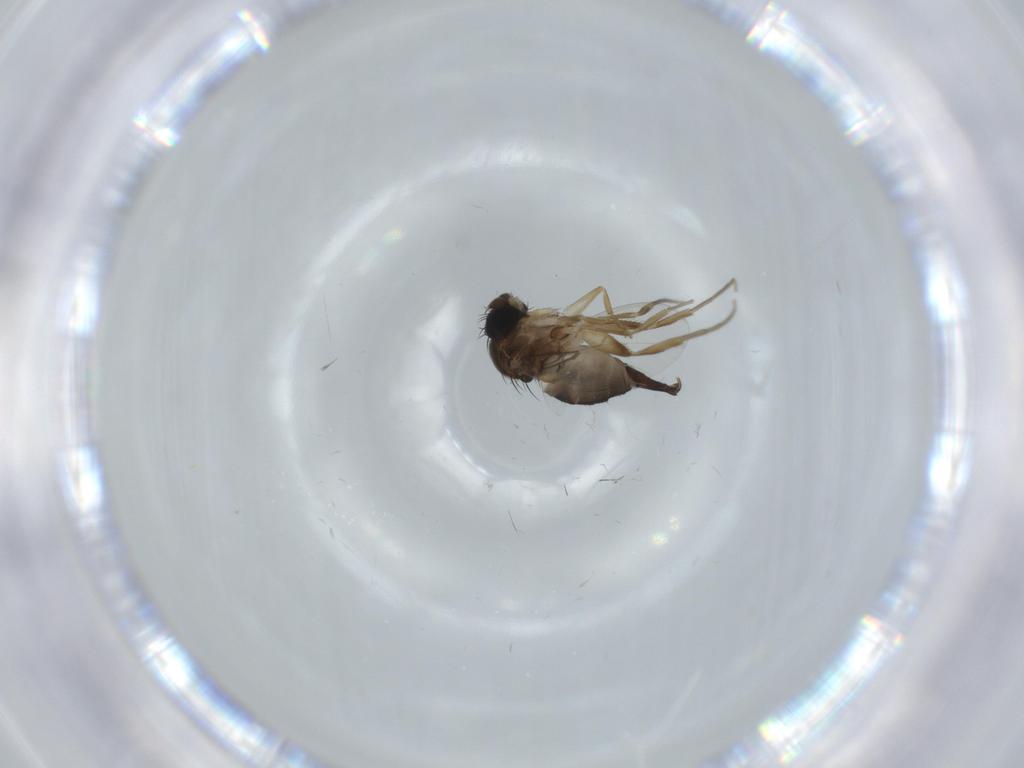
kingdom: Animalia
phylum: Arthropoda
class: Insecta
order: Diptera
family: Phoridae
